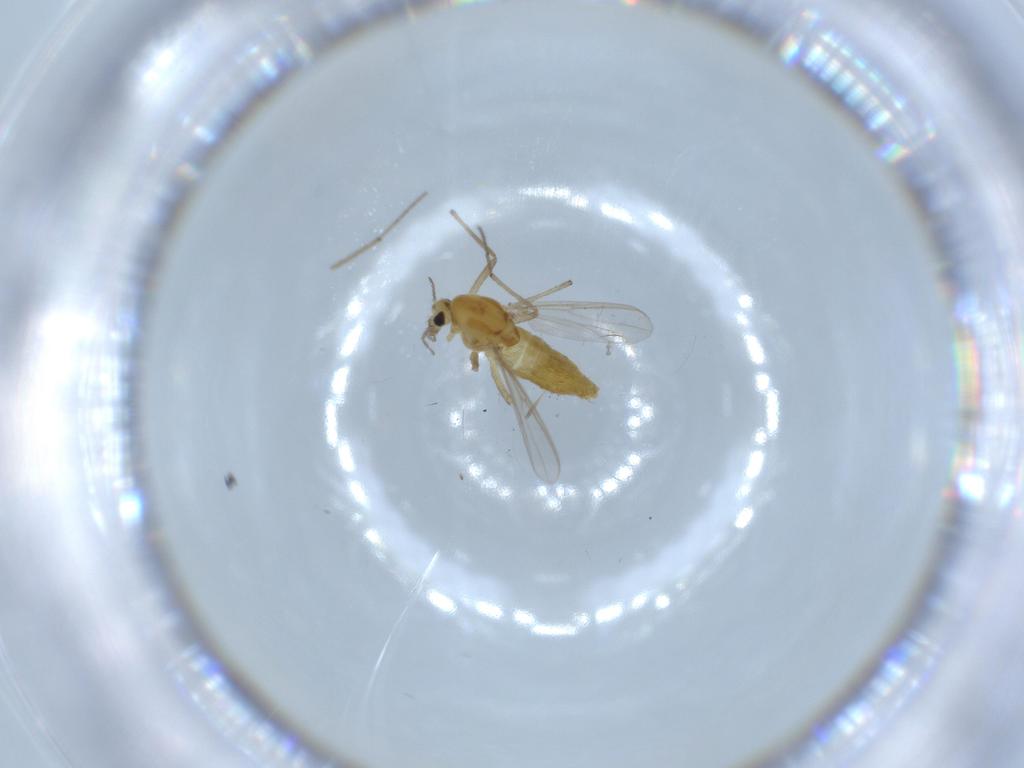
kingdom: Animalia
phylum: Arthropoda
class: Insecta
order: Diptera
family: Chironomidae
